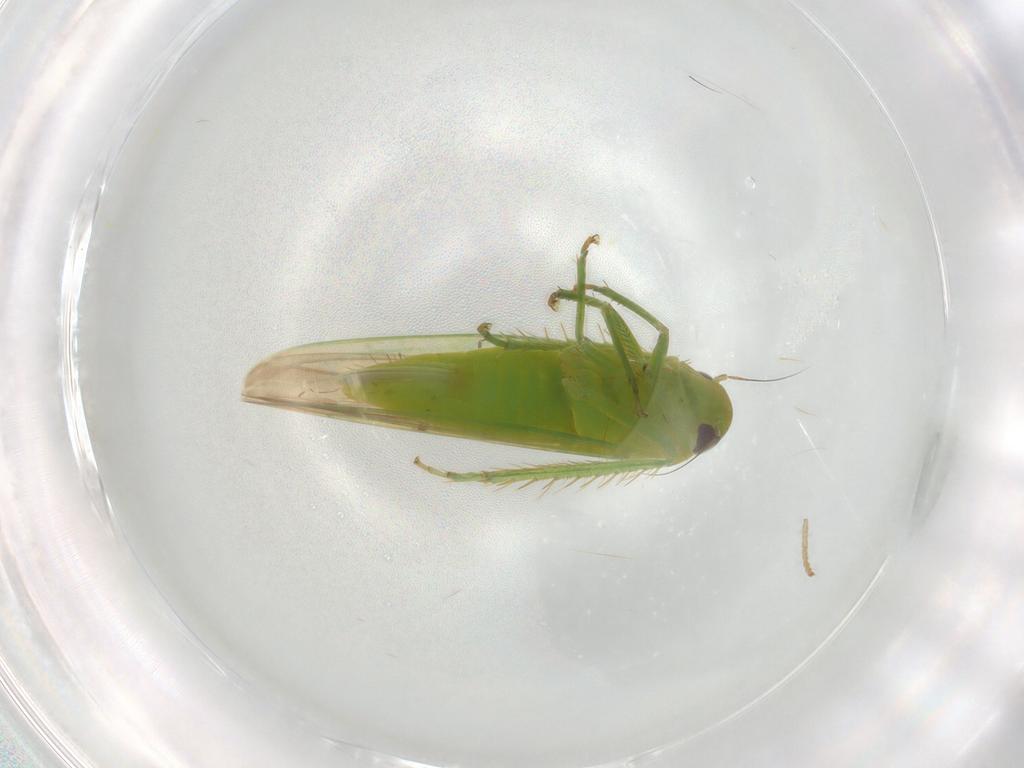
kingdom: Animalia
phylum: Arthropoda
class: Insecta
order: Hemiptera
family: Cicadellidae
